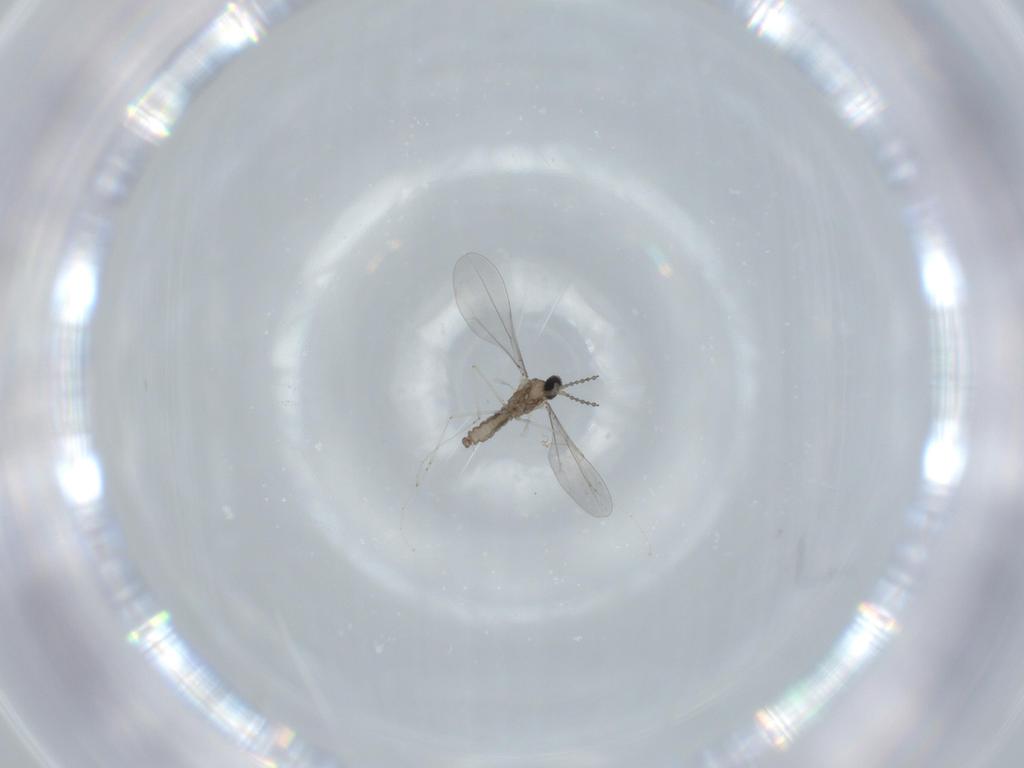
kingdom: Animalia
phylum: Arthropoda
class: Insecta
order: Diptera
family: Cecidomyiidae
